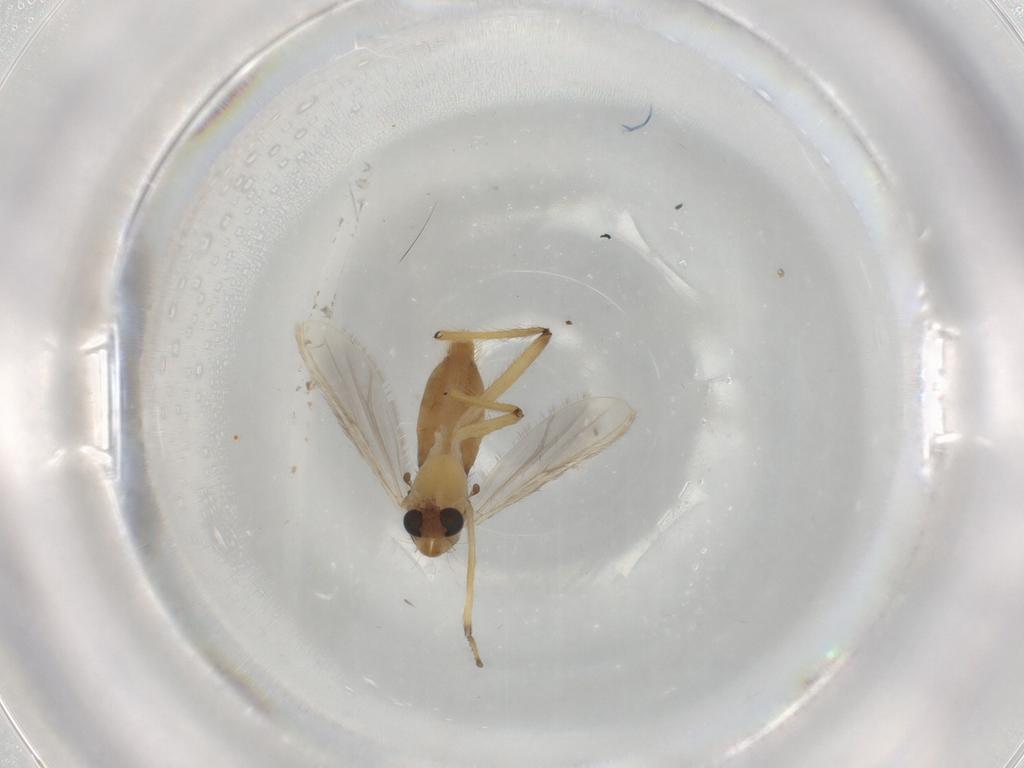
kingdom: Animalia
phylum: Arthropoda
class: Insecta
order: Diptera
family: Chironomidae
